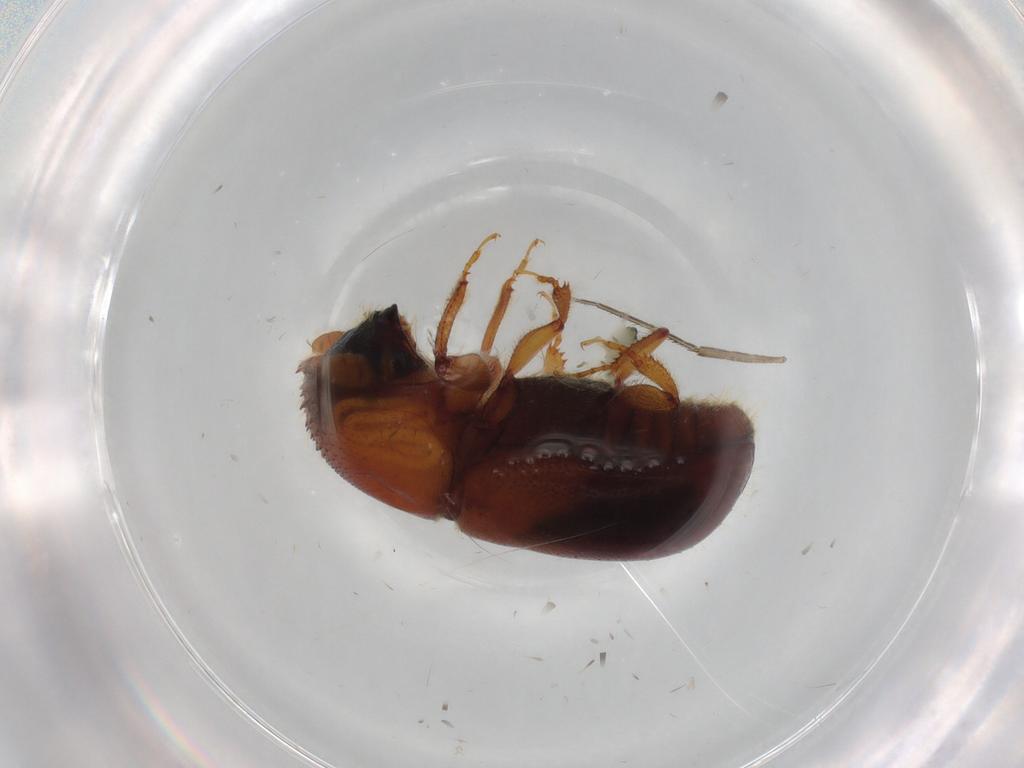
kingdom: Animalia
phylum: Arthropoda
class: Insecta
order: Coleoptera
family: Curculionidae
